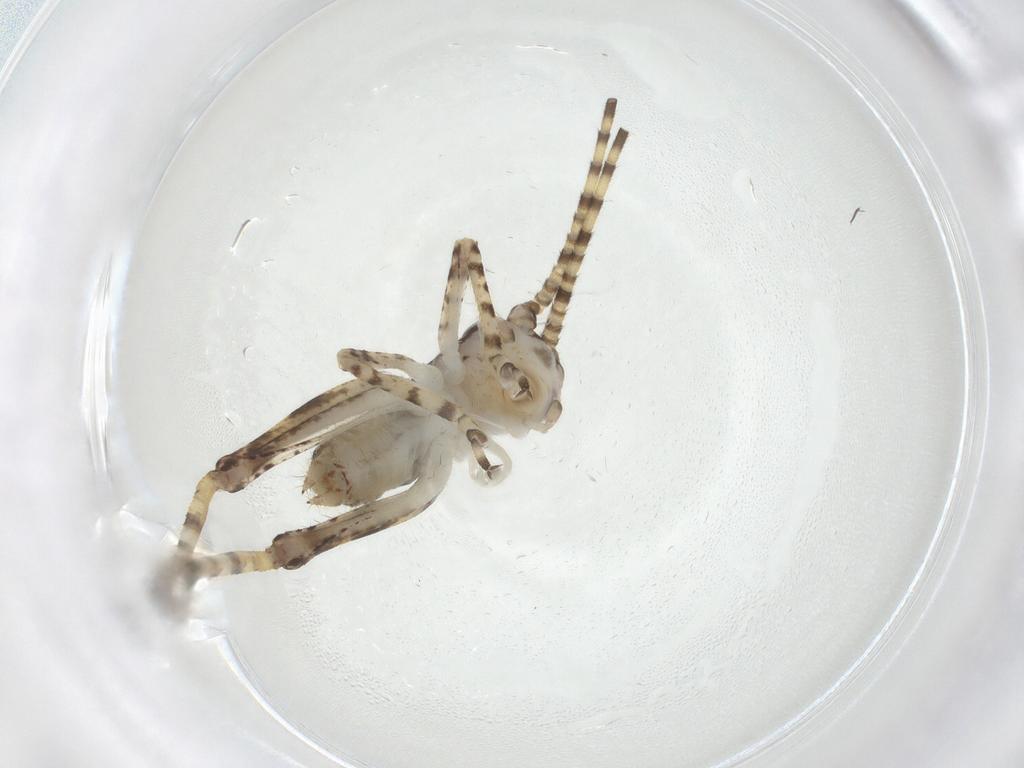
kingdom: Animalia
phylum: Arthropoda
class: Insecta
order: Orthoptera
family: Gryllidae
